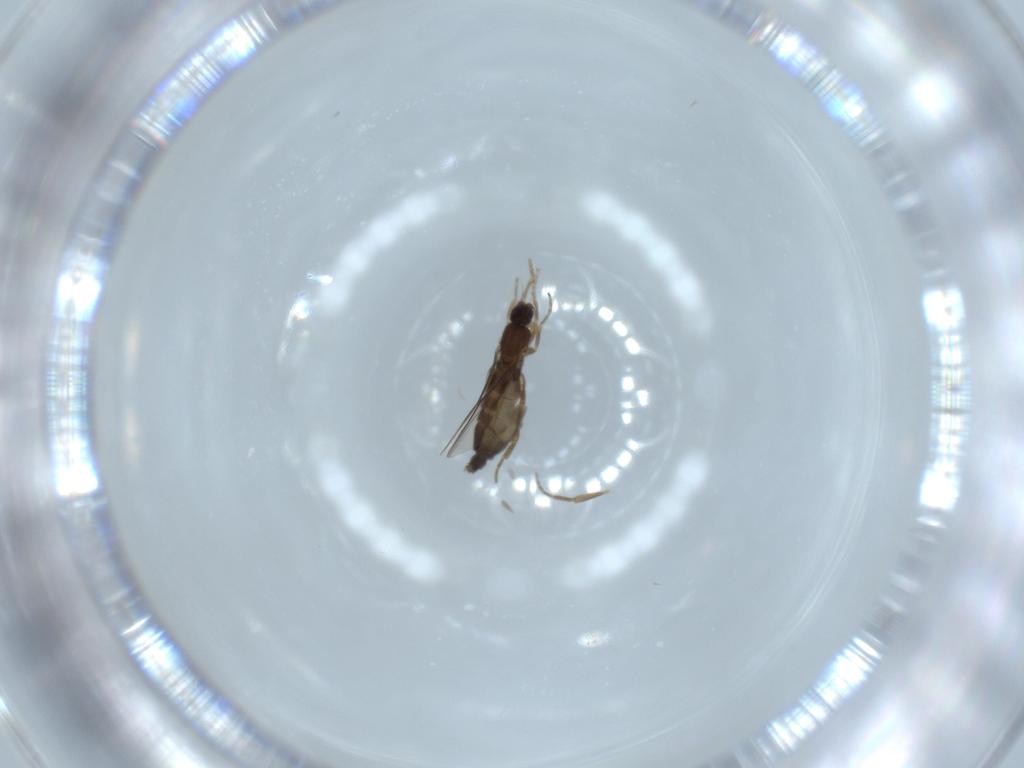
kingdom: Animalia
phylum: Arthropoda
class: Insecta
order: Diptera
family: Phoridae
